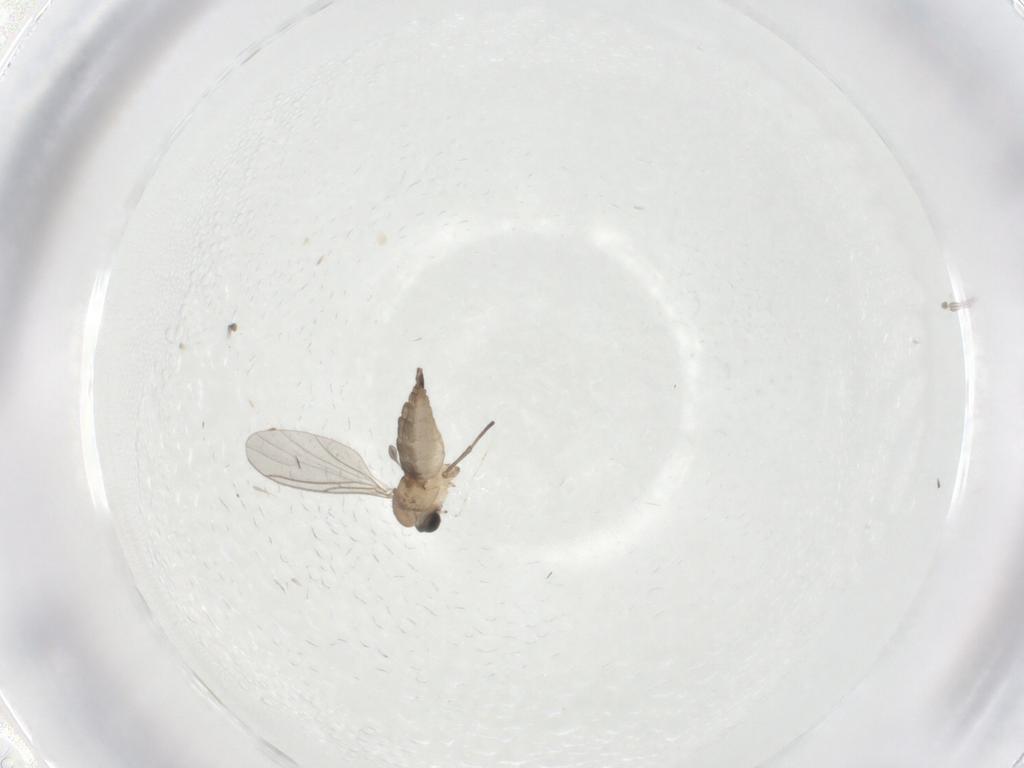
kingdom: Animalia
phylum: Arthropoda
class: Insecta
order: Diptera
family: Sciaridae
